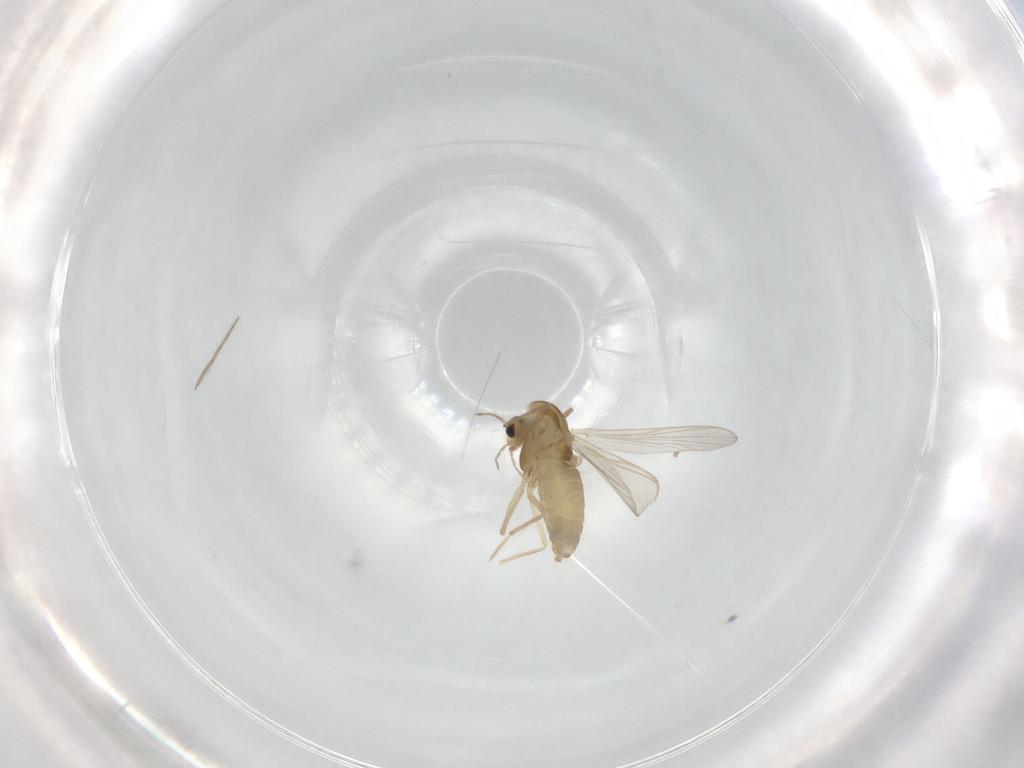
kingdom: Animalia
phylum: Arthropoda
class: Insecta
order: Diptera
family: Chironomidae
